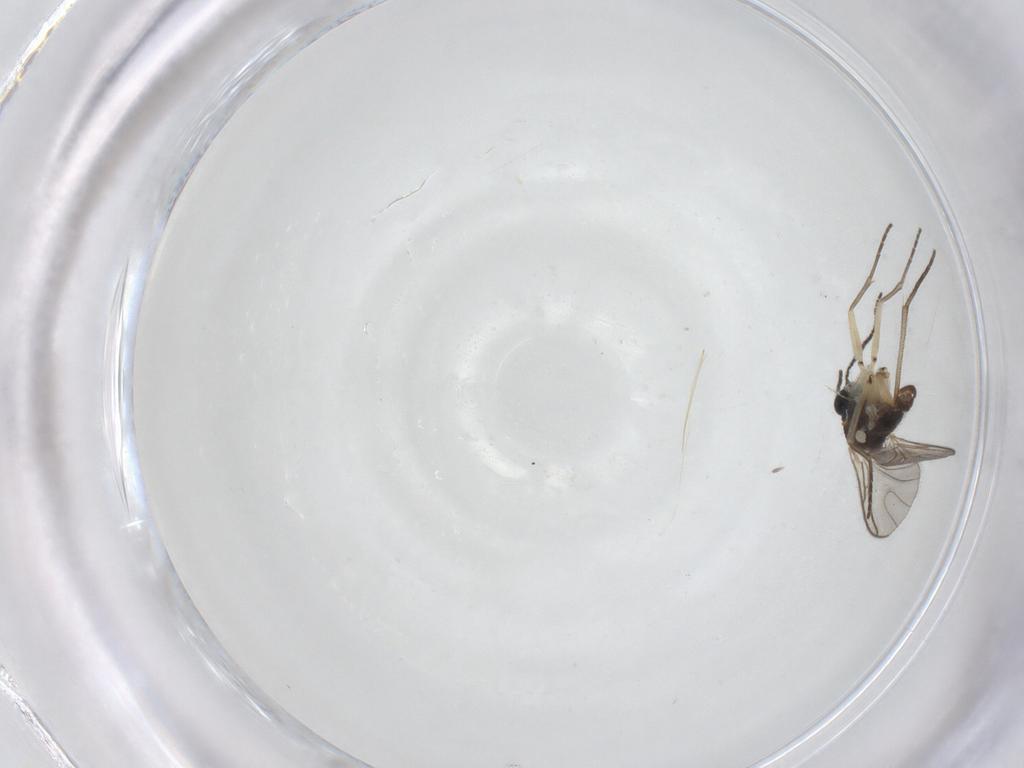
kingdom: Animalia
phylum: Arthropoda
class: Insecta
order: Diptera
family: Sciaridae
